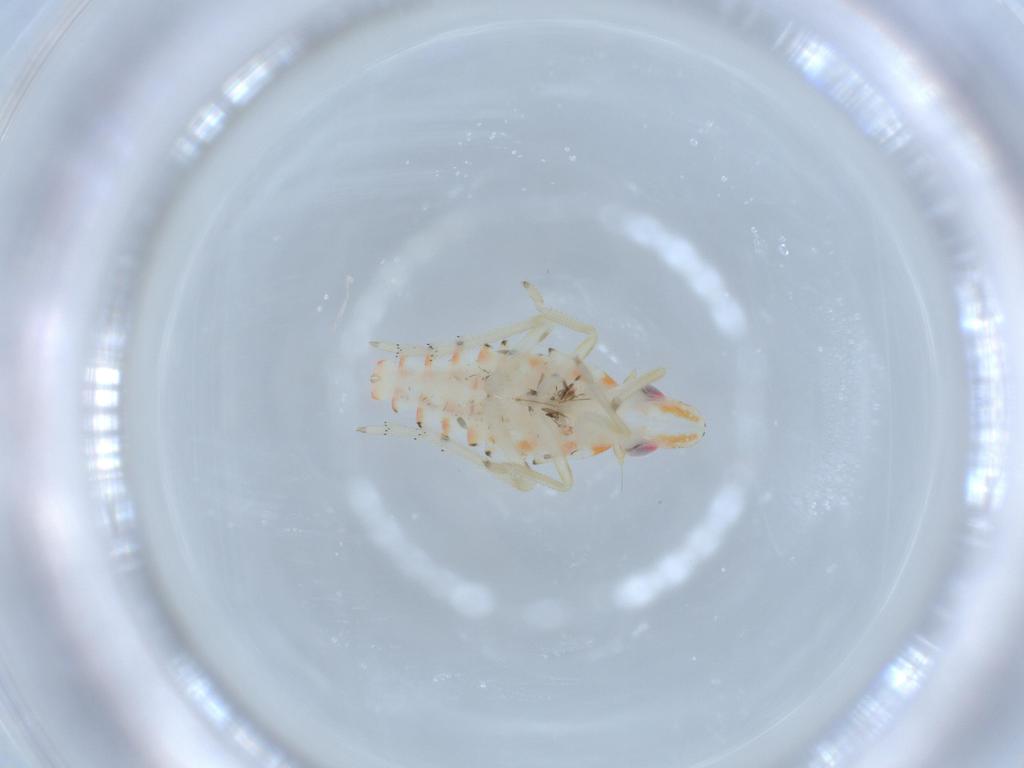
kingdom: Animalia
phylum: Arthropoda
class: Insecta
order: Hemiptera
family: Tropiduchidae
